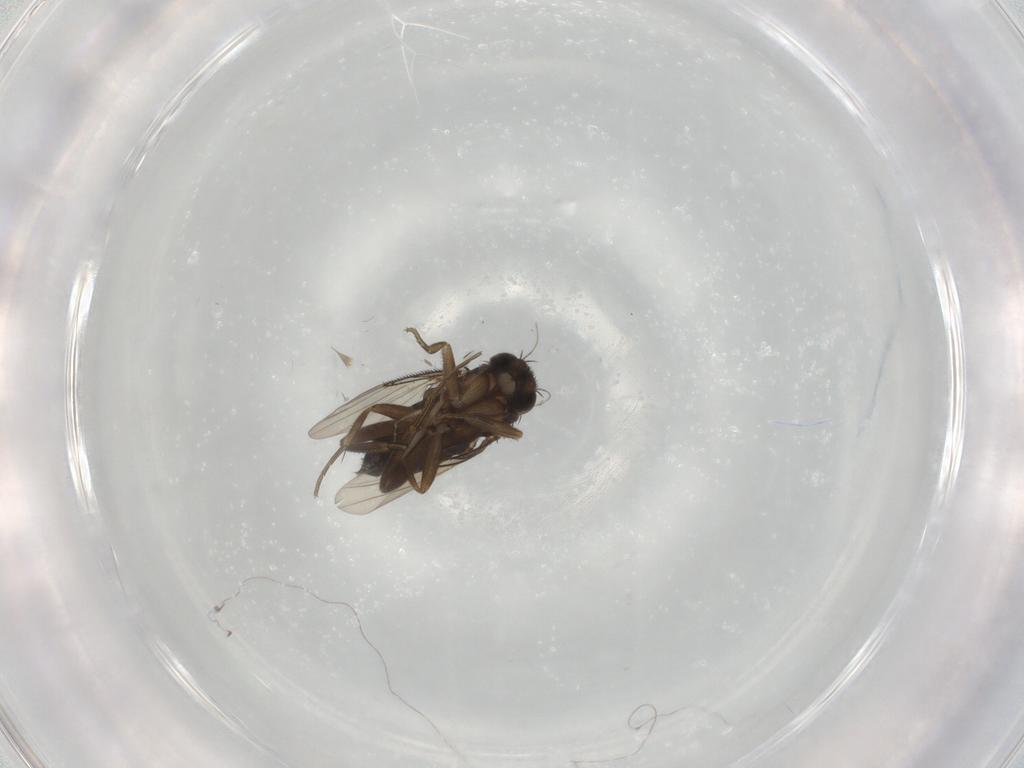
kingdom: Animalia
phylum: Arthropoda
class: Insecta
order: Diptera
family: Phoridae
